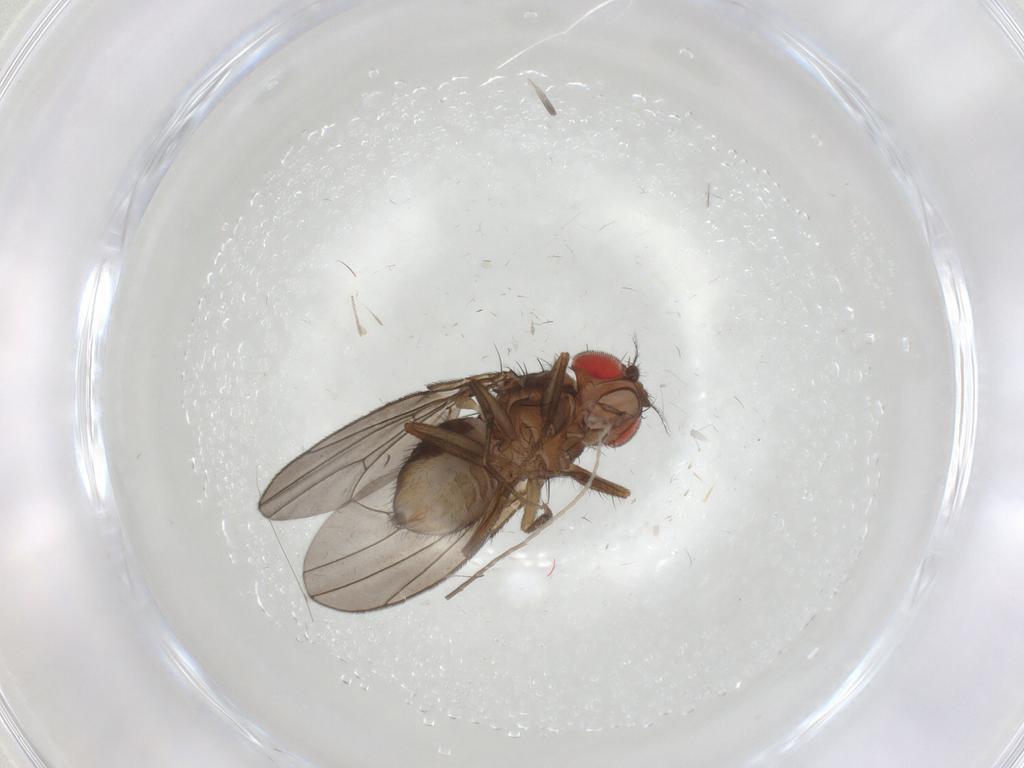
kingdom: Animalia
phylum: Arthropoda
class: Insecta
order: Diptera
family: Drosophilidae
